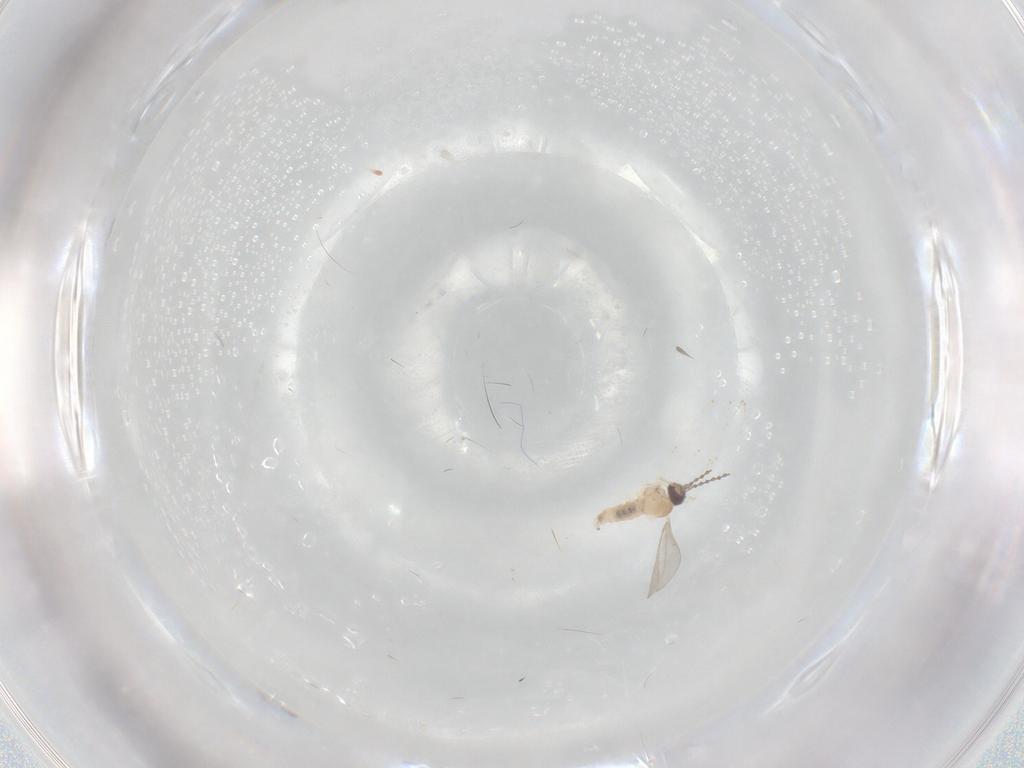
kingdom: Animalia
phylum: Arthropoda
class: Insecta
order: Diptera
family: Cecidomyiidae
